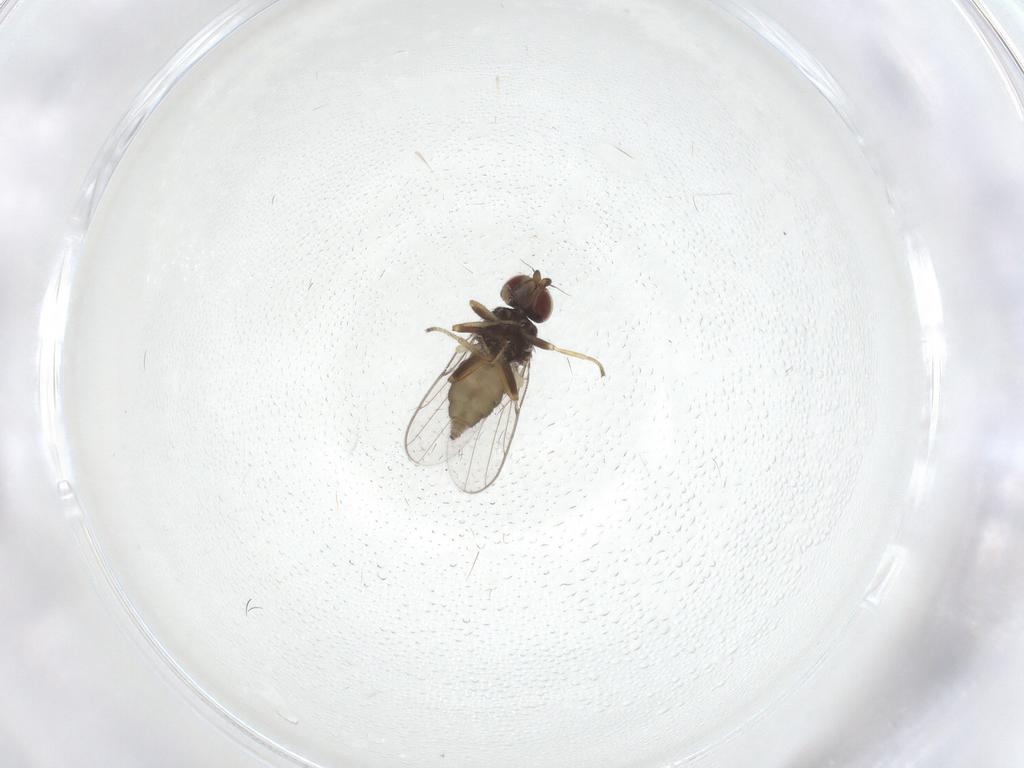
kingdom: Animalia
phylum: Arthropoda
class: Insecta
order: Diptera
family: Chloropidae
